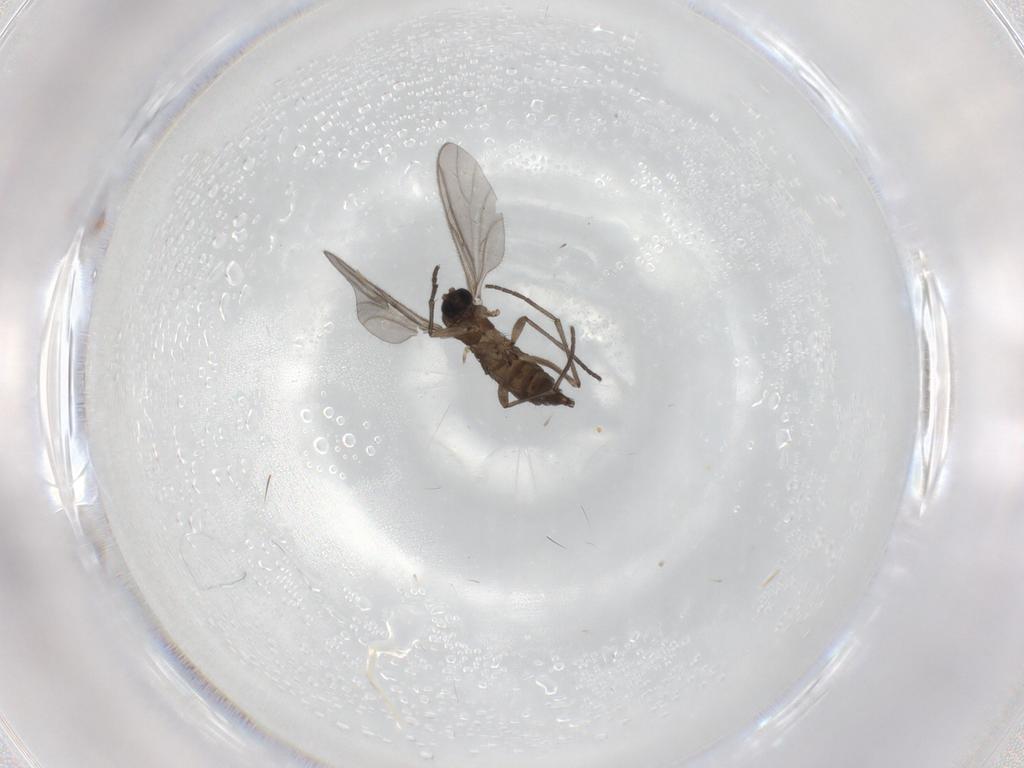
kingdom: Animalia
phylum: Arthropoda
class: Insecta
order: Diptera
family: Sciaridae
